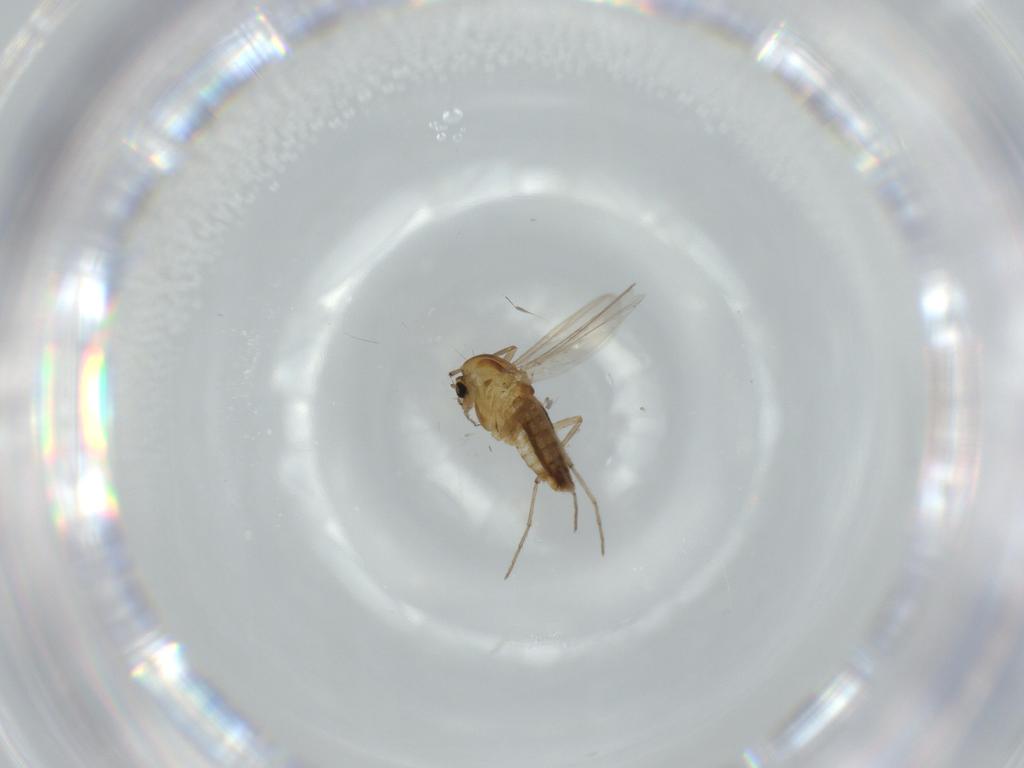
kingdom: Animalia
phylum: Arthropoda
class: Insecta
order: Diptera
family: Chironomidae
